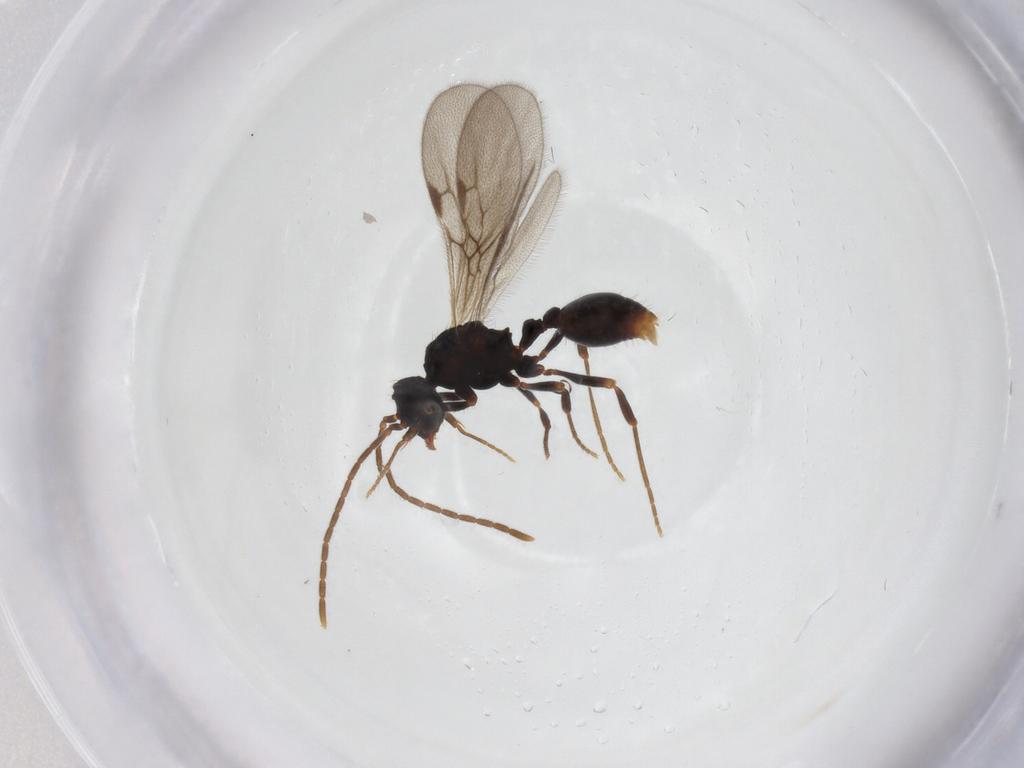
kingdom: Animalia
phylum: Arthropoda
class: Insecta
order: Hymenoptera
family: Formicidae
